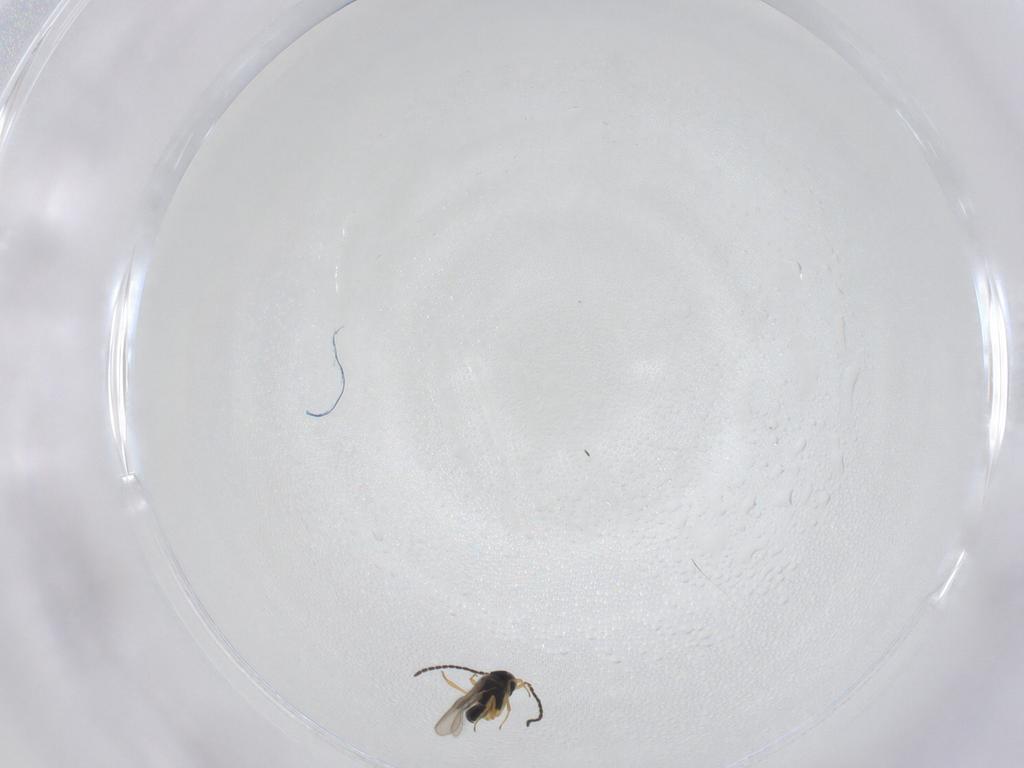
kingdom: Animalia
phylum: Arthropoda
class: Insecta
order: Hymenoptera
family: Scelionidae
